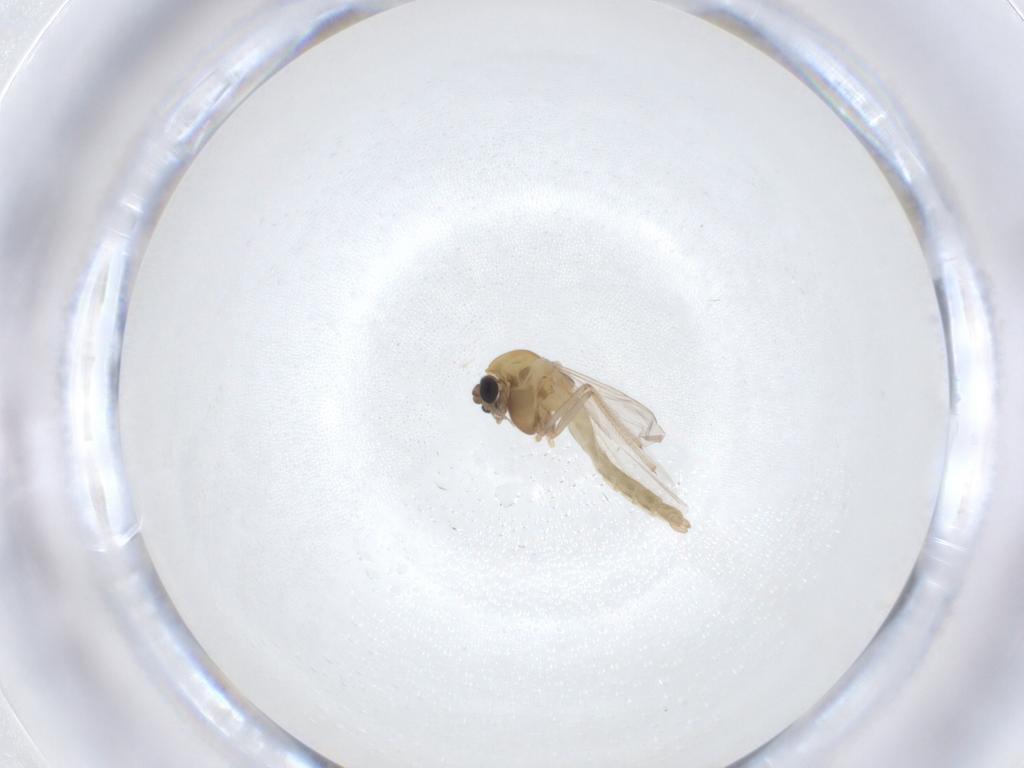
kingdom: Animalia
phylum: Arthropoda
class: Insecta
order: Diptera
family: Chironomidae
